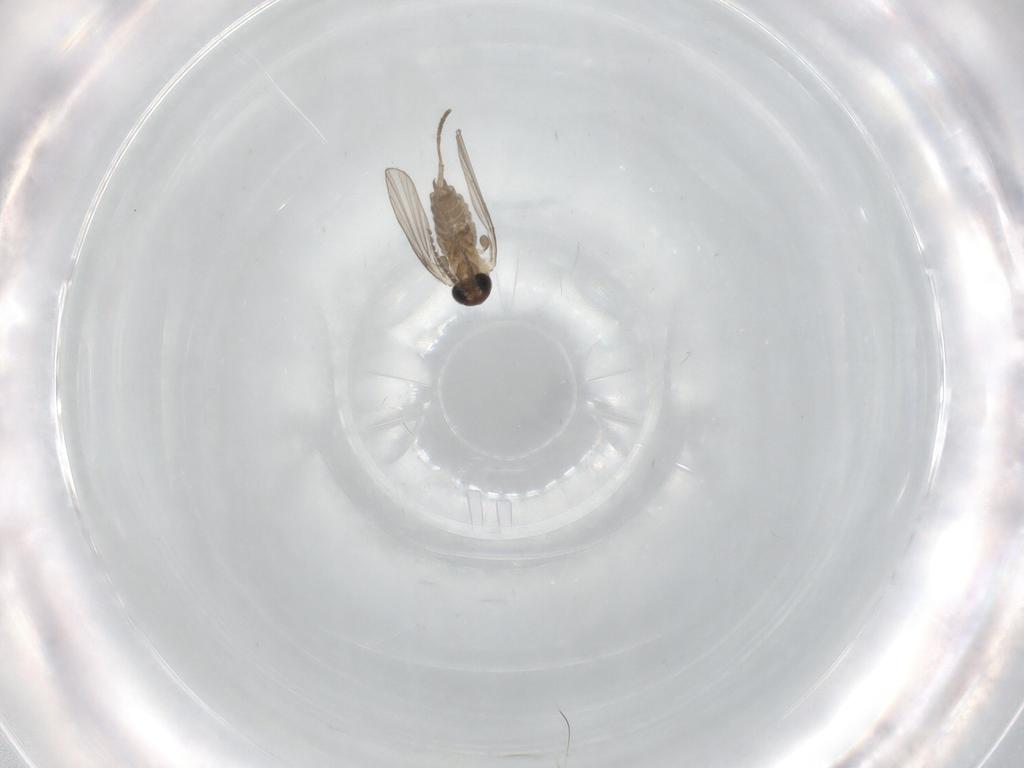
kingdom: Animalia
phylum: Arthropoda
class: Insecta
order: Diptera
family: Psychodidae
